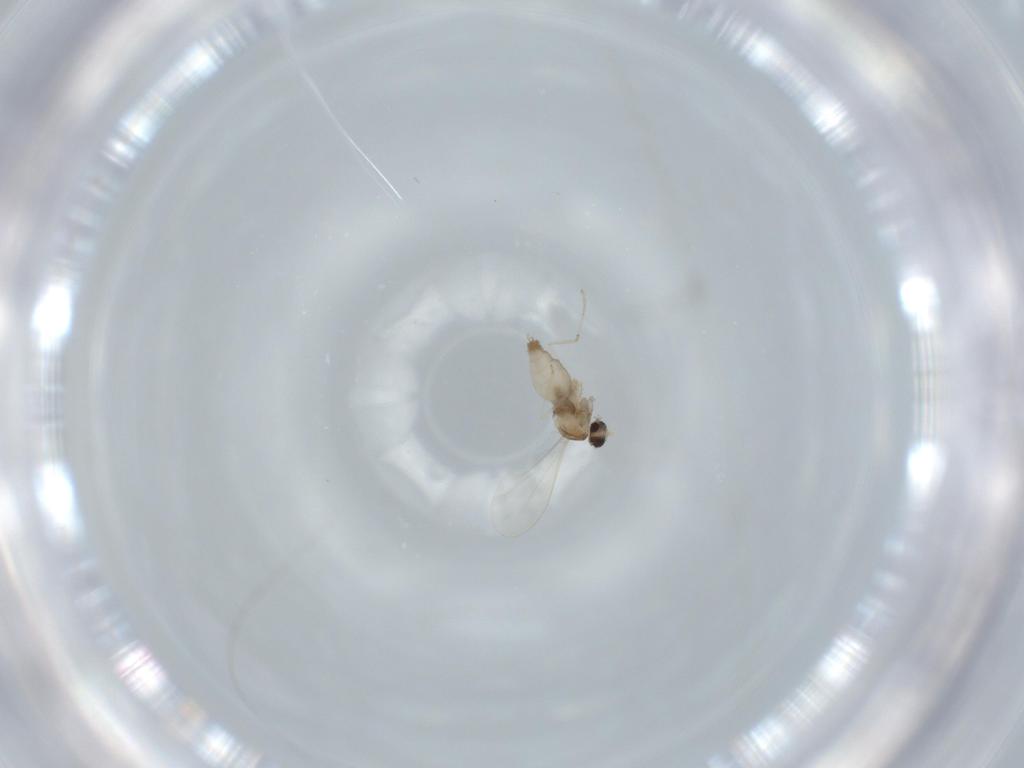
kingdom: Animalia
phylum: Arthropoda
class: Insecta
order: Diptera
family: Cecidomyiidae
